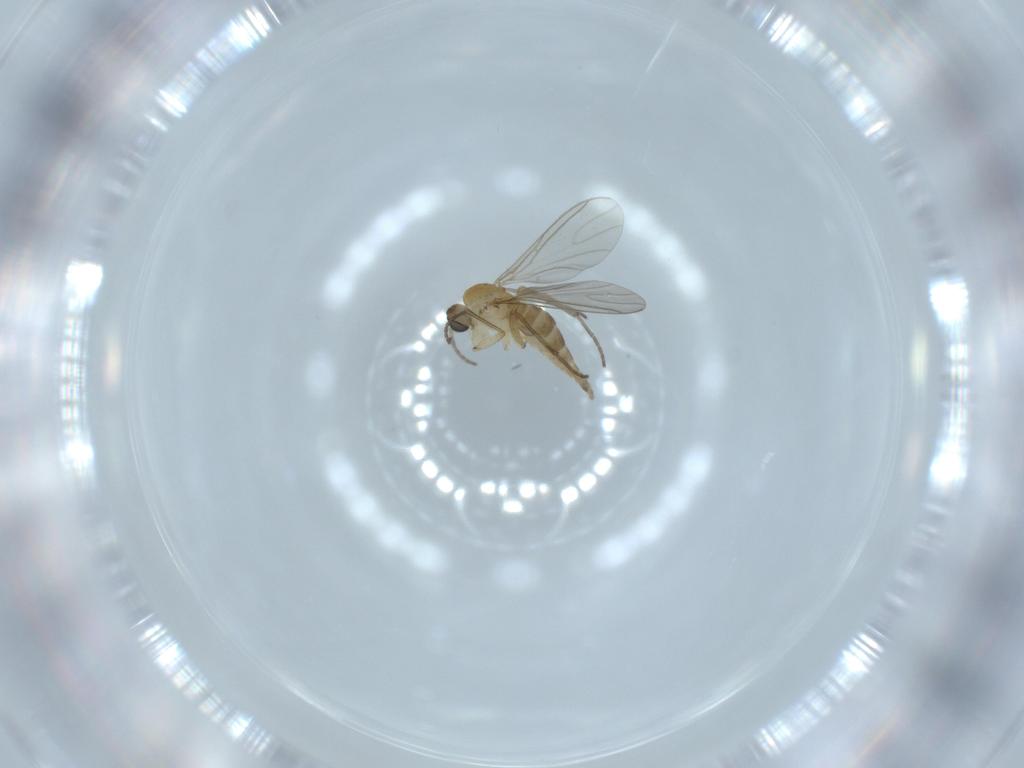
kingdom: Animalia
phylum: Arthropoda
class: Insecta
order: Diptera
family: Sciaridae
